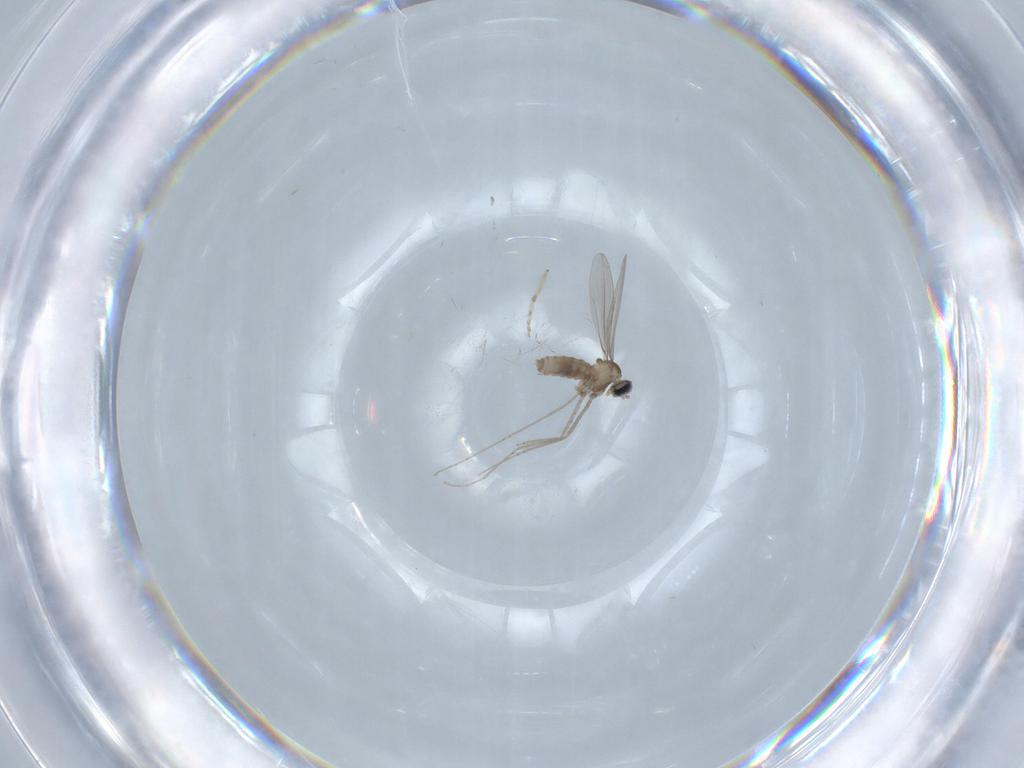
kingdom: Animalia
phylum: Arthropoda
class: Insecta
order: Diptera
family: Cecidomyiidae
